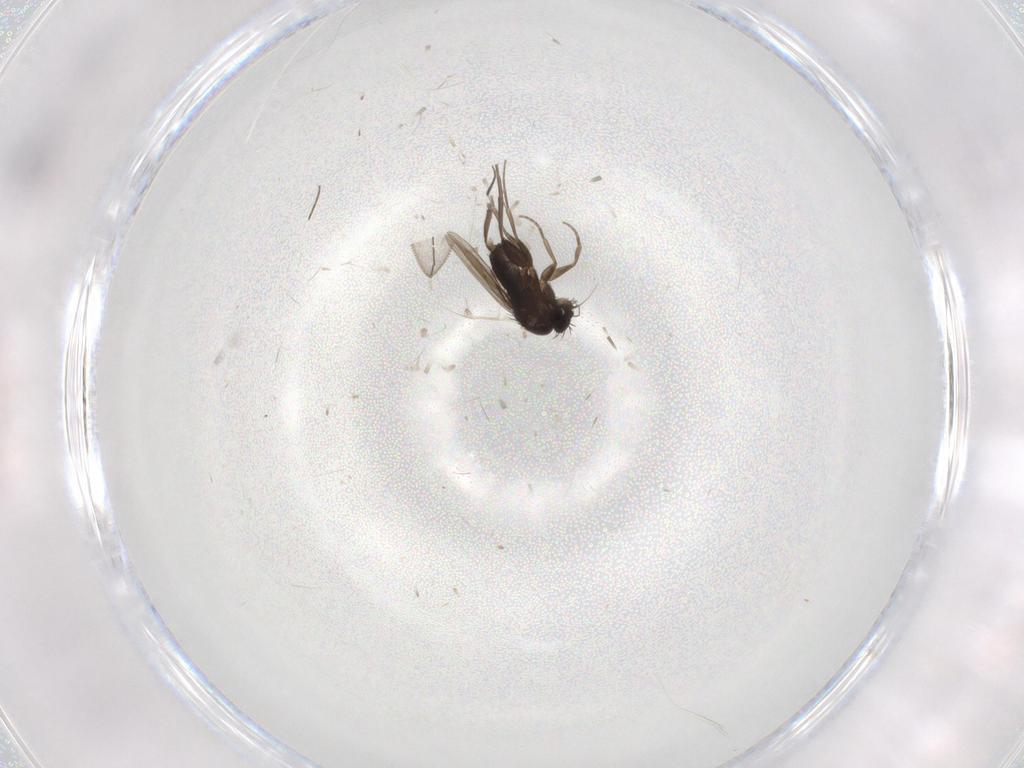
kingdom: Animalia
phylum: Arthropoda
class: Insecta
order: Diptera
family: Phoridae
